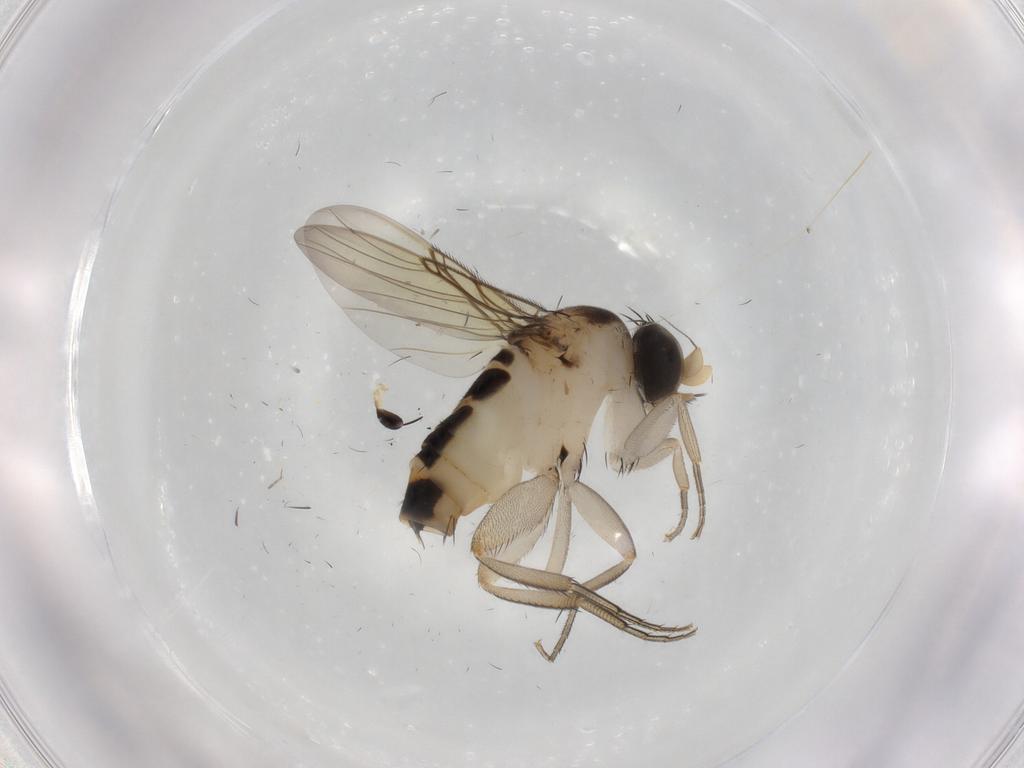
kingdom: Animalia
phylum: Arthropoda
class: Insecta
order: Diptera
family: Phoridae
